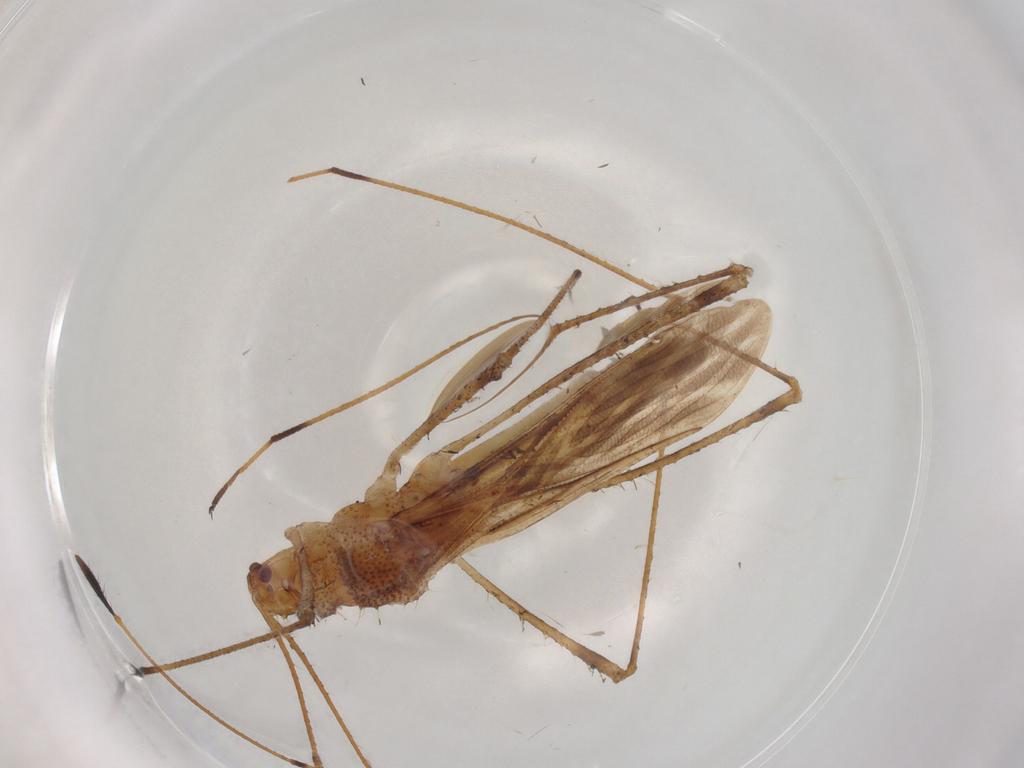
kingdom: Animalia
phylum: Arthropoda
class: Insecta
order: Hemiptera
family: Berytidae
